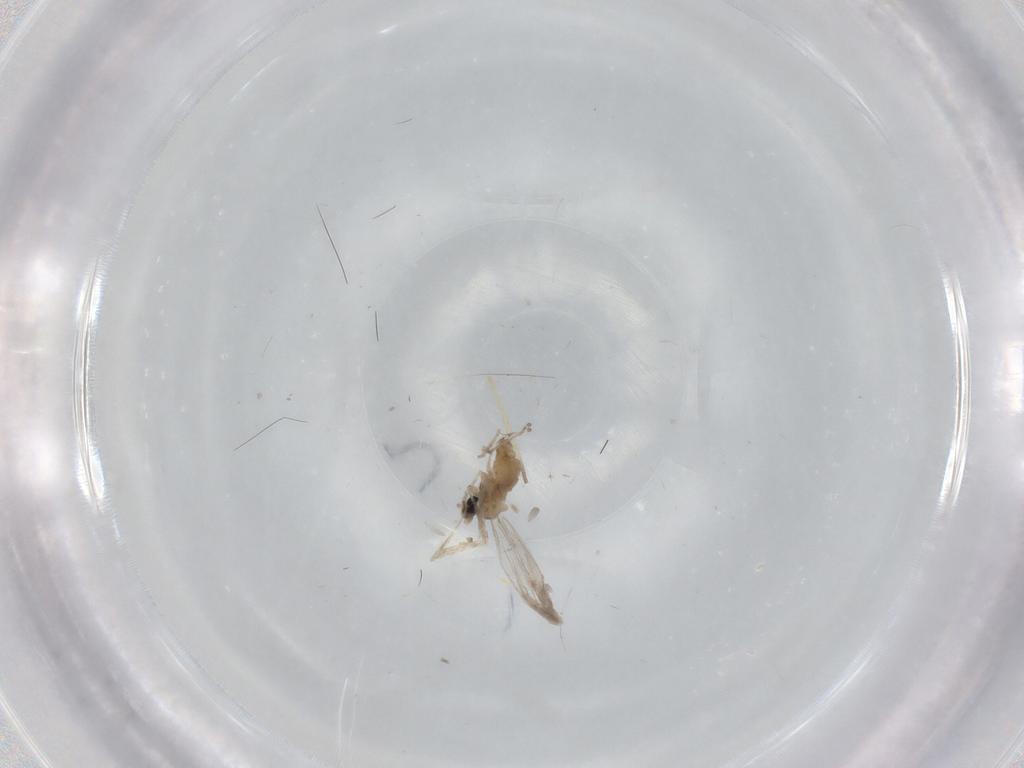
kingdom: Animalia
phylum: Arthropoda
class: Insecta
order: Diptera
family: Cecidomyiidae
